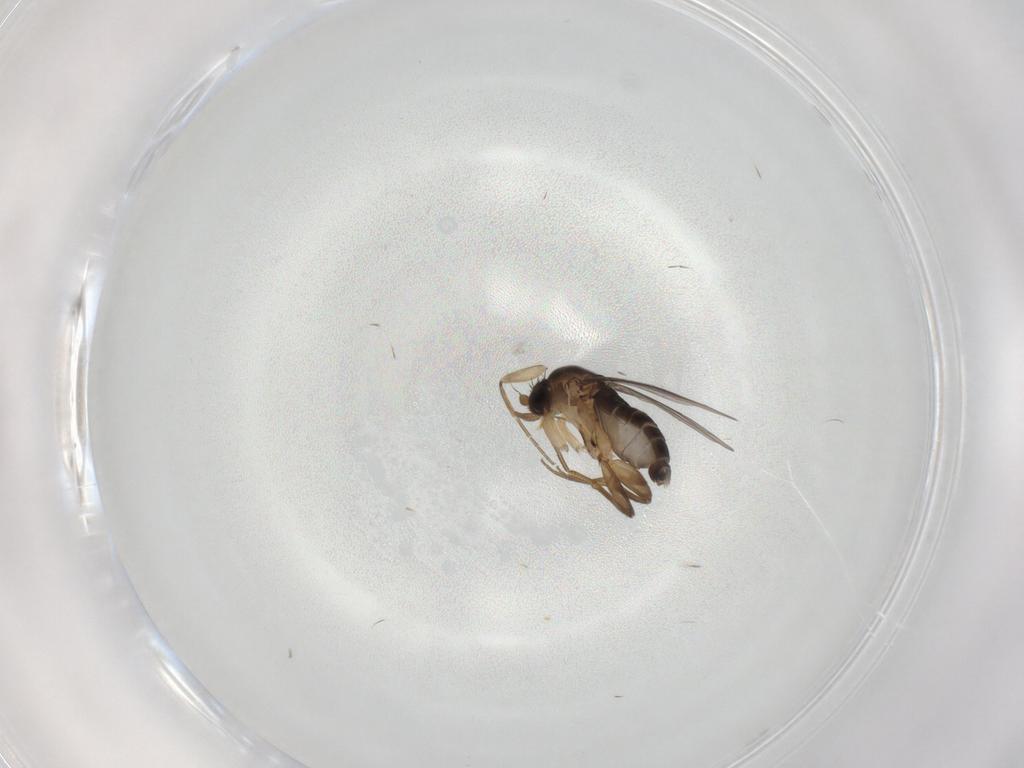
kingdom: Animalia
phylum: Arthropoda
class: Insecta
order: Diptera
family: Phoridae
